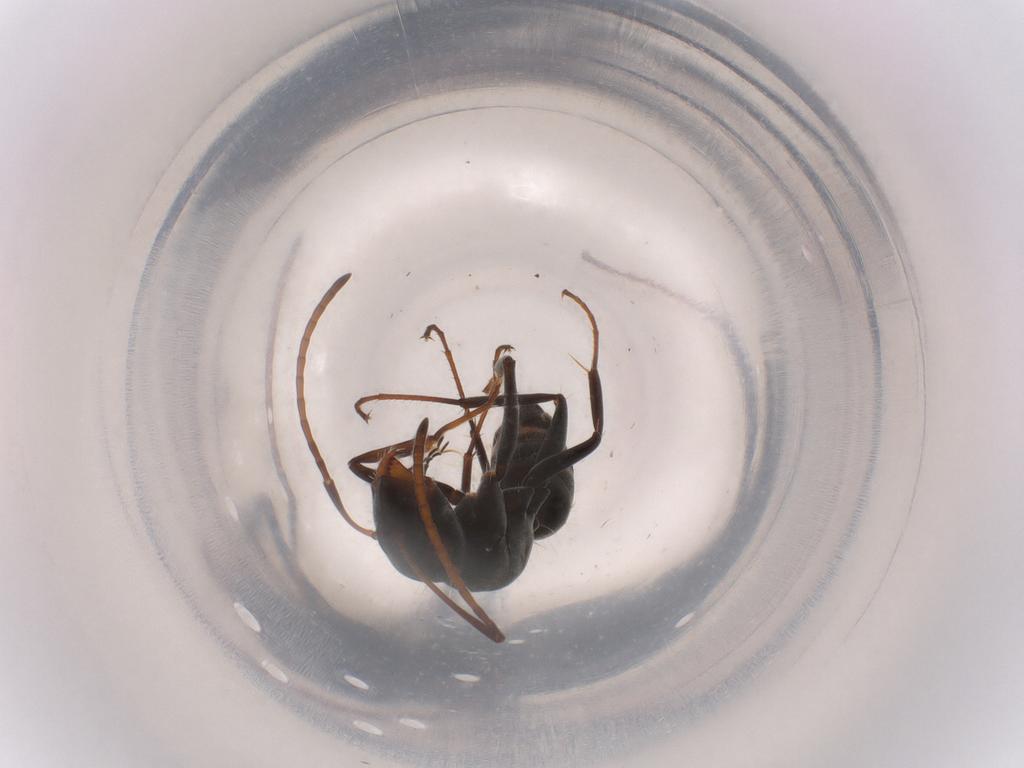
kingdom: Animalia
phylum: Arthropoda
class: Insecta
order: Hymenoptera
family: Formicidae
